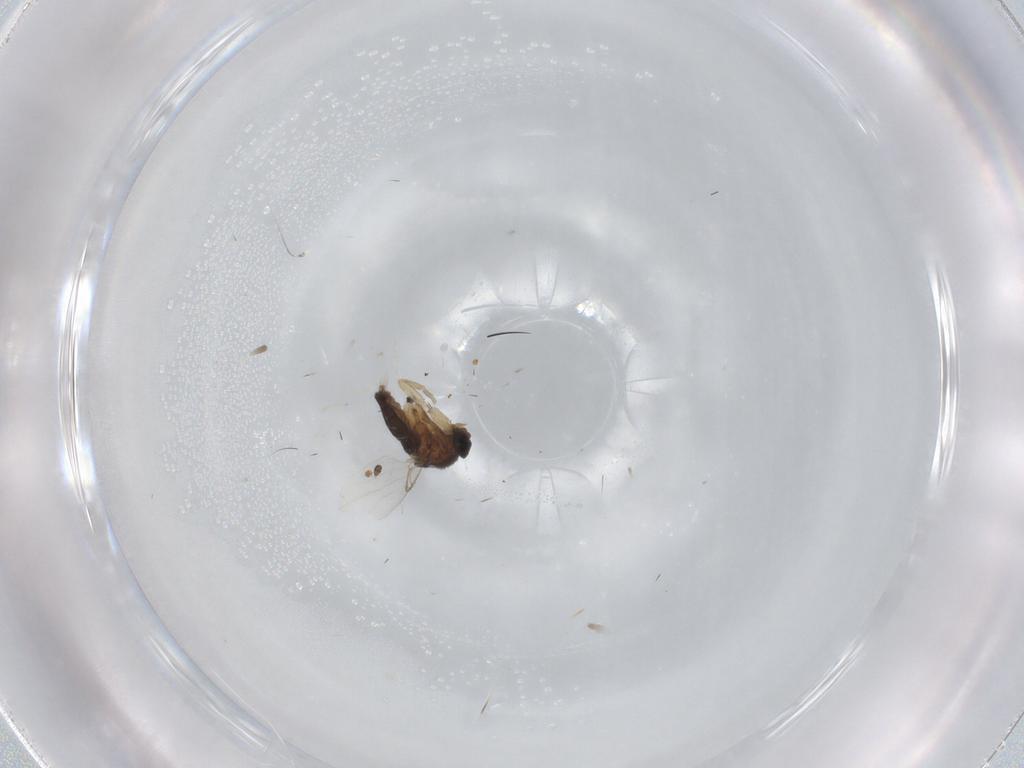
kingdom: Animalia
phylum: Arthropoda
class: Insecta
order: Diptera
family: Phoridae
